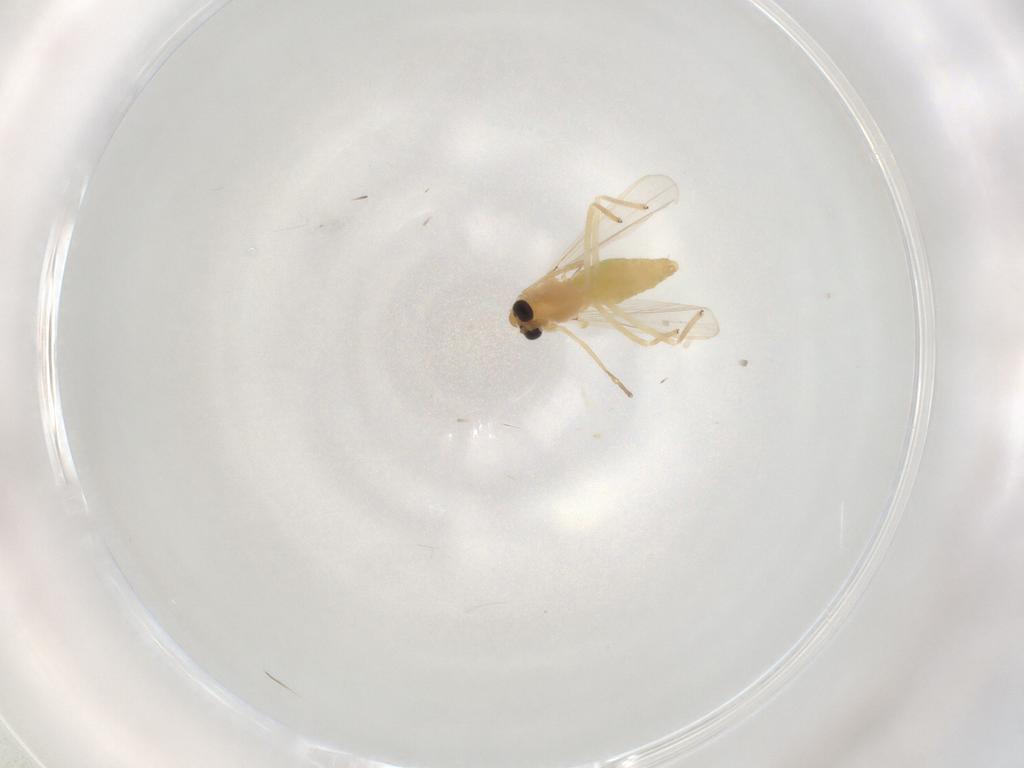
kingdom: Animalia
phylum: Arthropoda
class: Insecta
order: Diptera
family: Chironomidae
